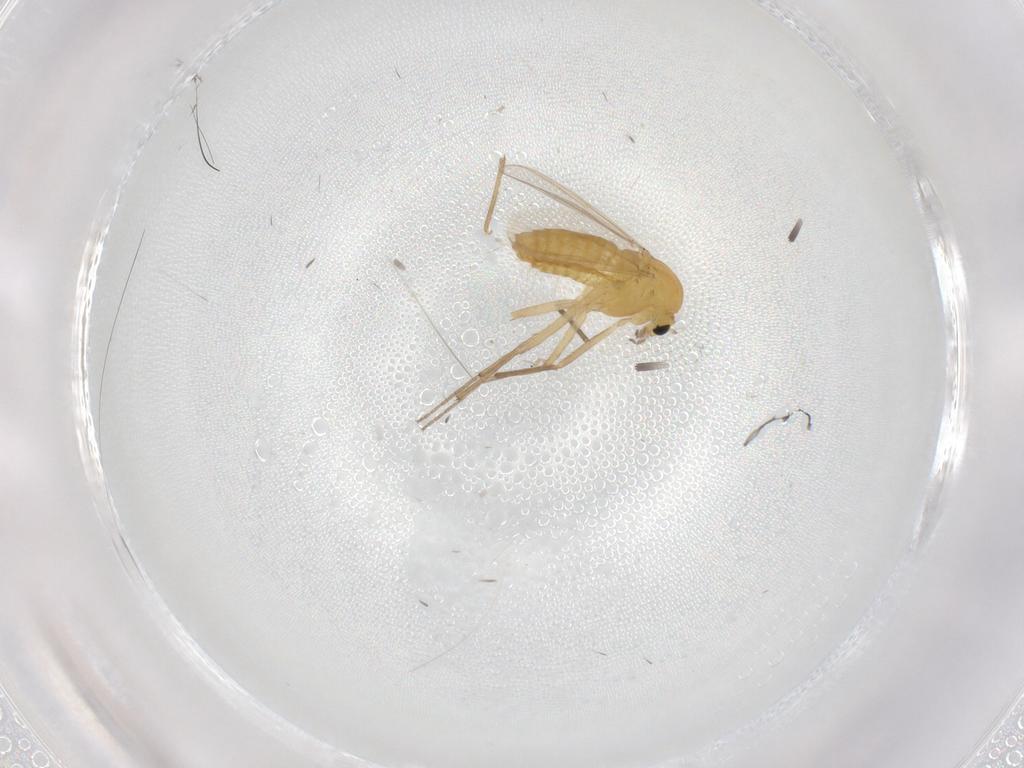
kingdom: Animalia
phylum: Arthropoda
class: Insecta
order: Diptera
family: Chironomidae
